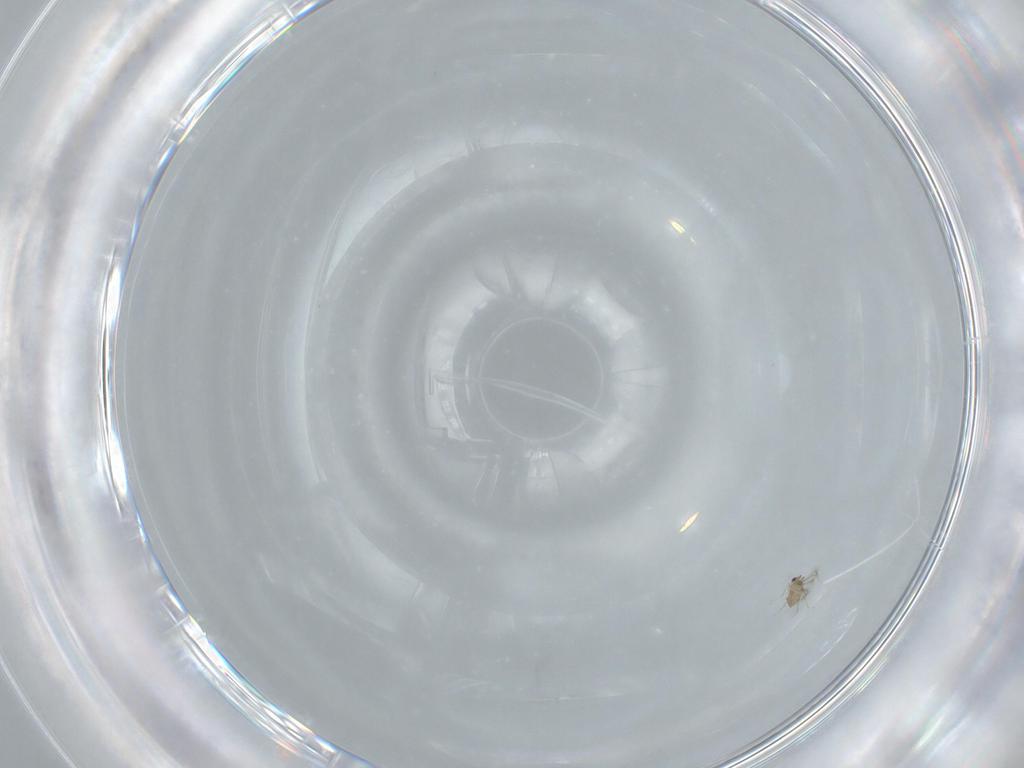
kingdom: Animalia
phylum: Arthropoda
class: Insecta
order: Hymenoptera
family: Mymaridae
